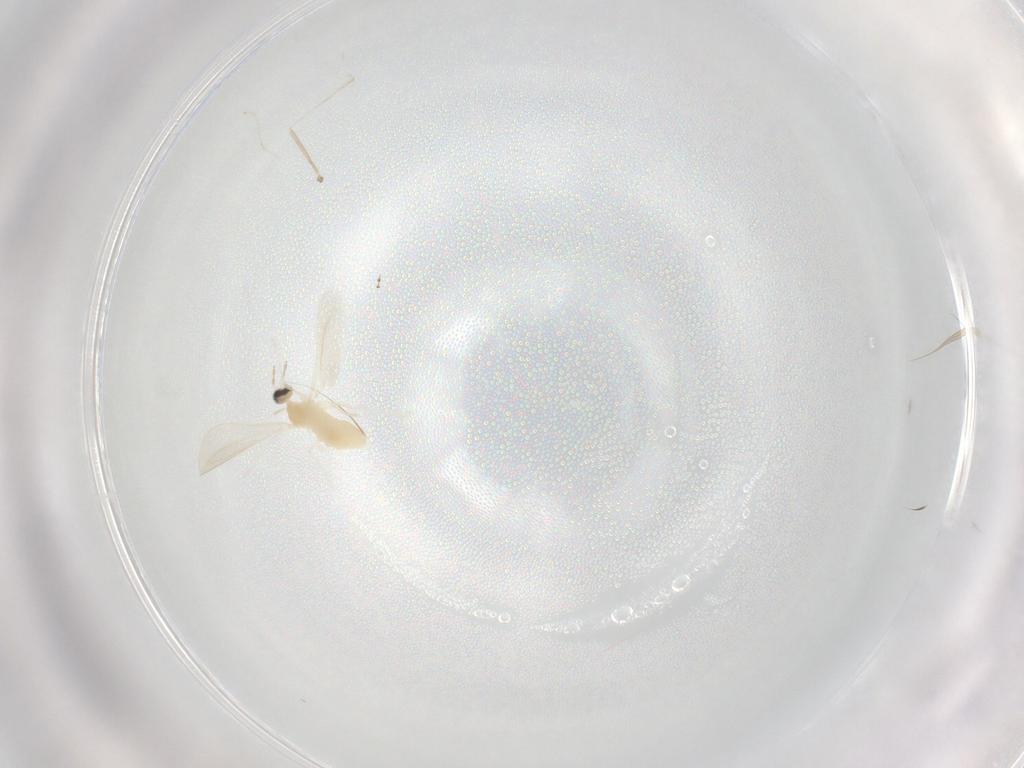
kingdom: Animalia
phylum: Arthropoda
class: Insecta
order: Diptera
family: Cecidomyiidae
